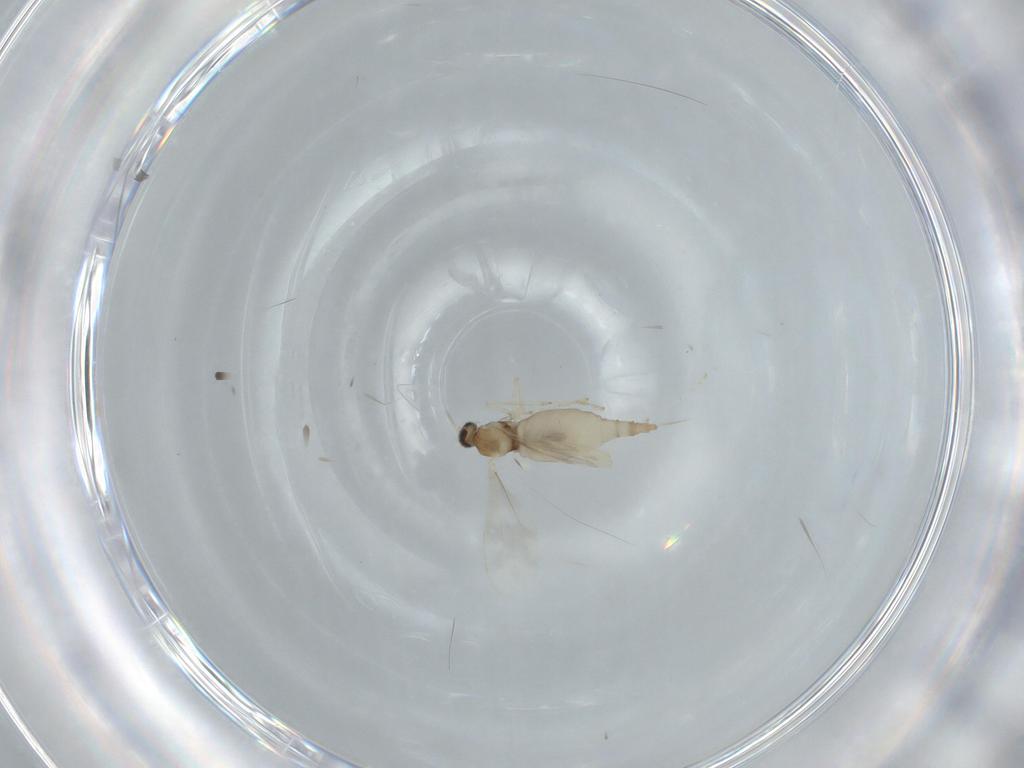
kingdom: Animalia
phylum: Arthropoda
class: Insecta
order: Diptera
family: Cecidomyiidae
